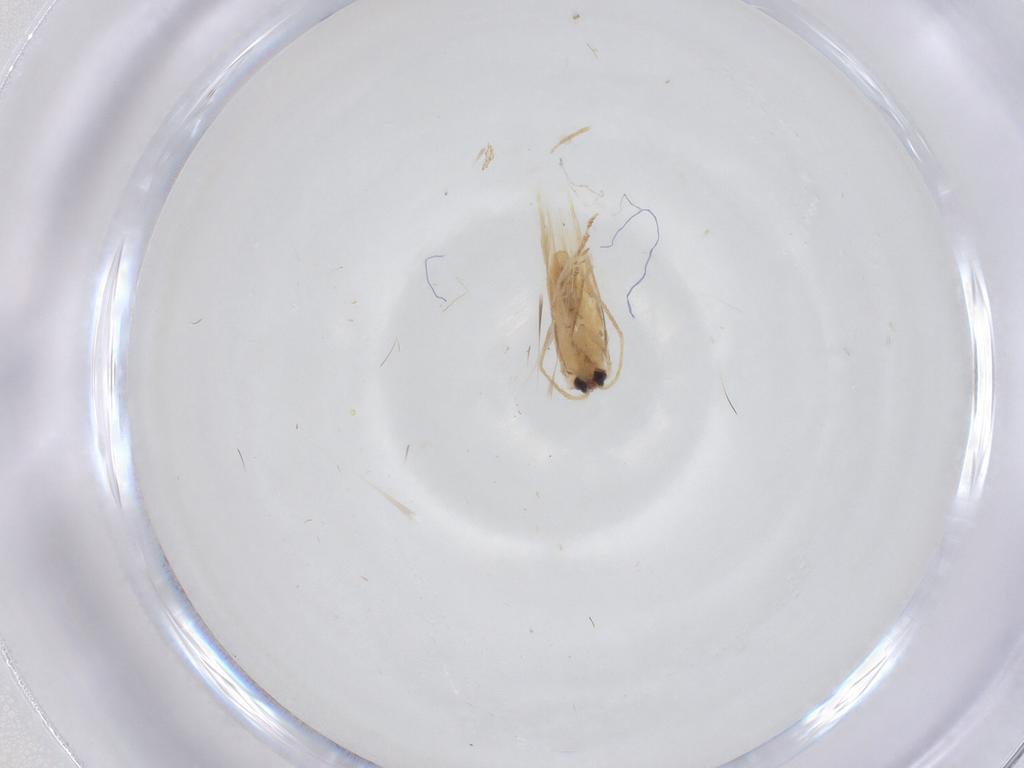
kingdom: Animalia
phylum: Arthropoda
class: Insecta
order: Lepidoptera
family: Nepticulidae
